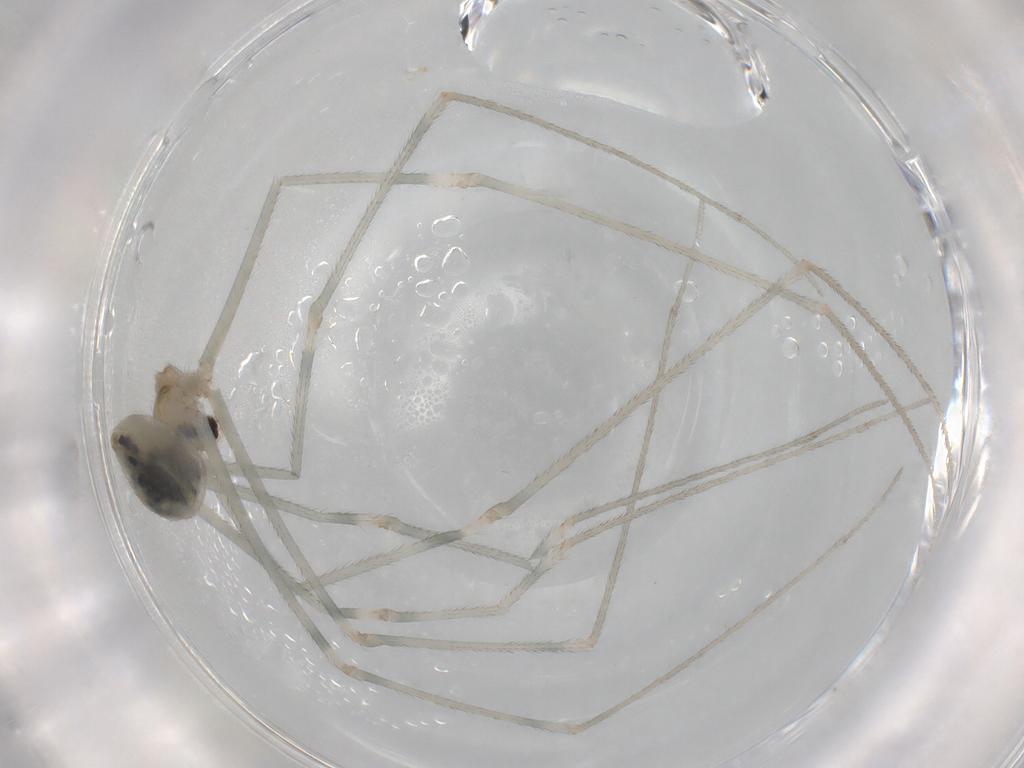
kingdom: Animalia
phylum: Arthropoda
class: Arachnida
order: Araneae
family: Pholcidae
